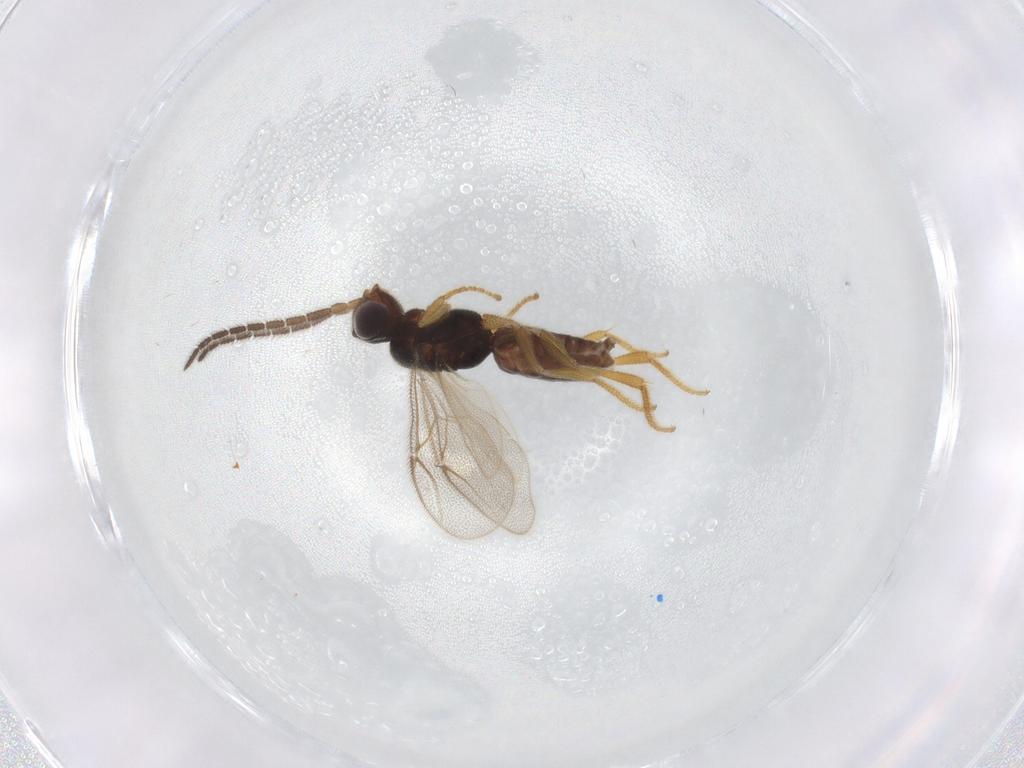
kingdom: Animalia
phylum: Arthropoda
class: Insecta
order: Hymenoptera
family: Dryinidae
